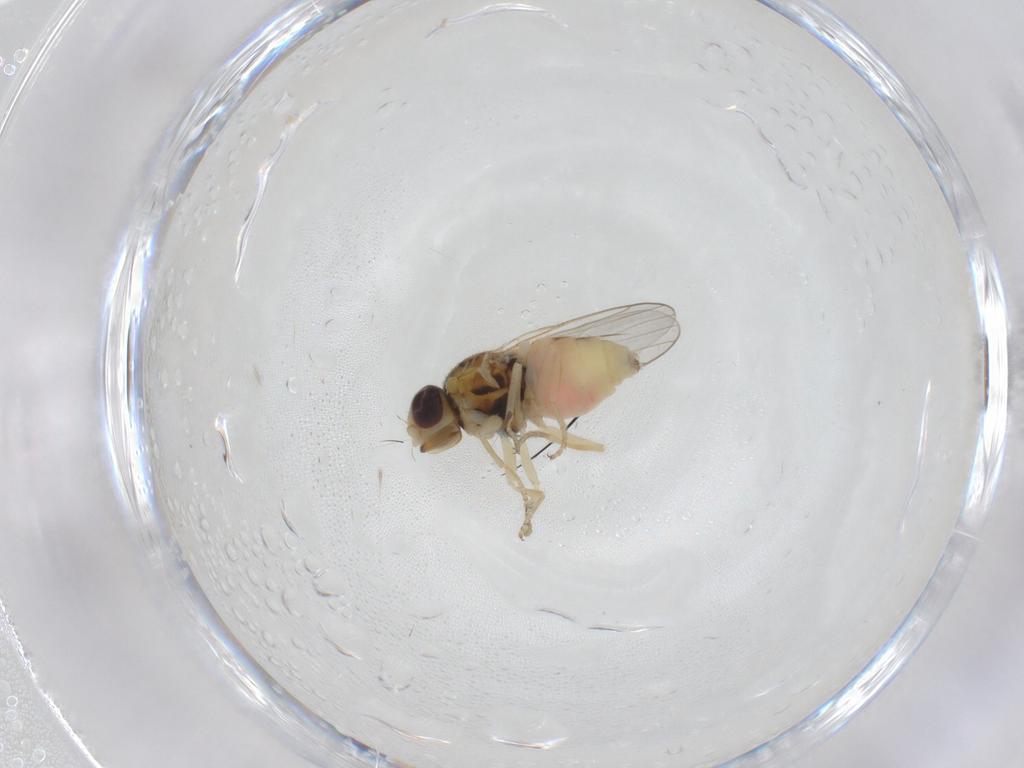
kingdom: Animalia
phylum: Arthropoda
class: Insecta
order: Diptera
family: Chloropidae
